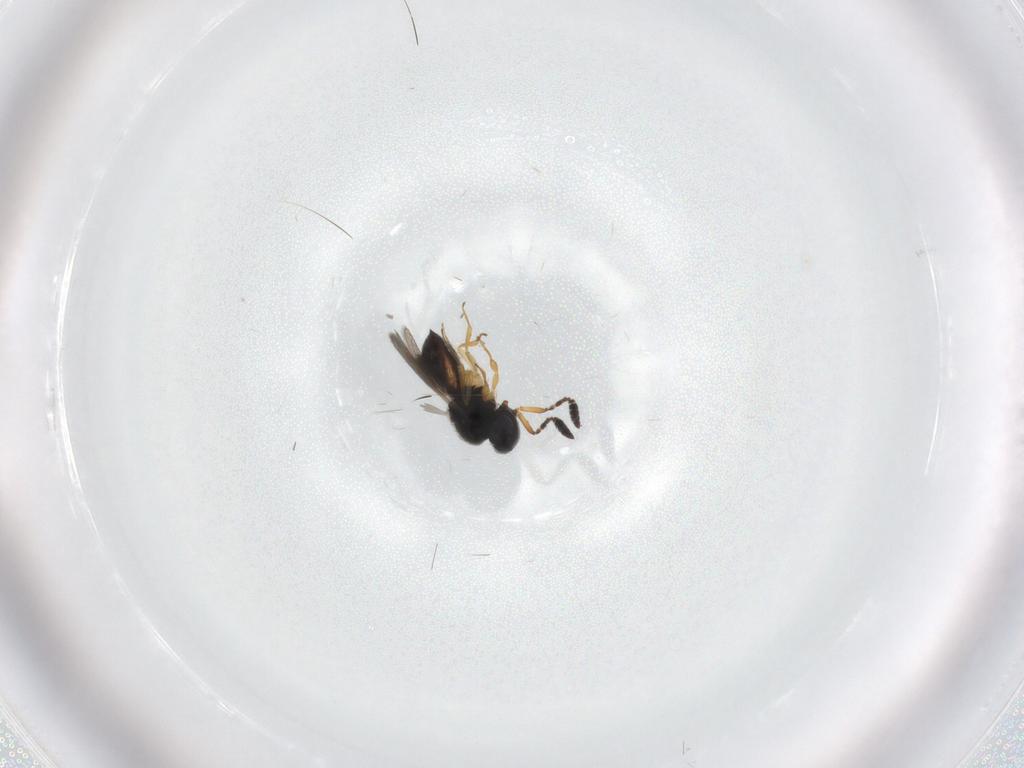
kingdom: Animalia
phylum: Arthropoda
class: Insecta
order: Hymenoptera
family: Scelionidae
